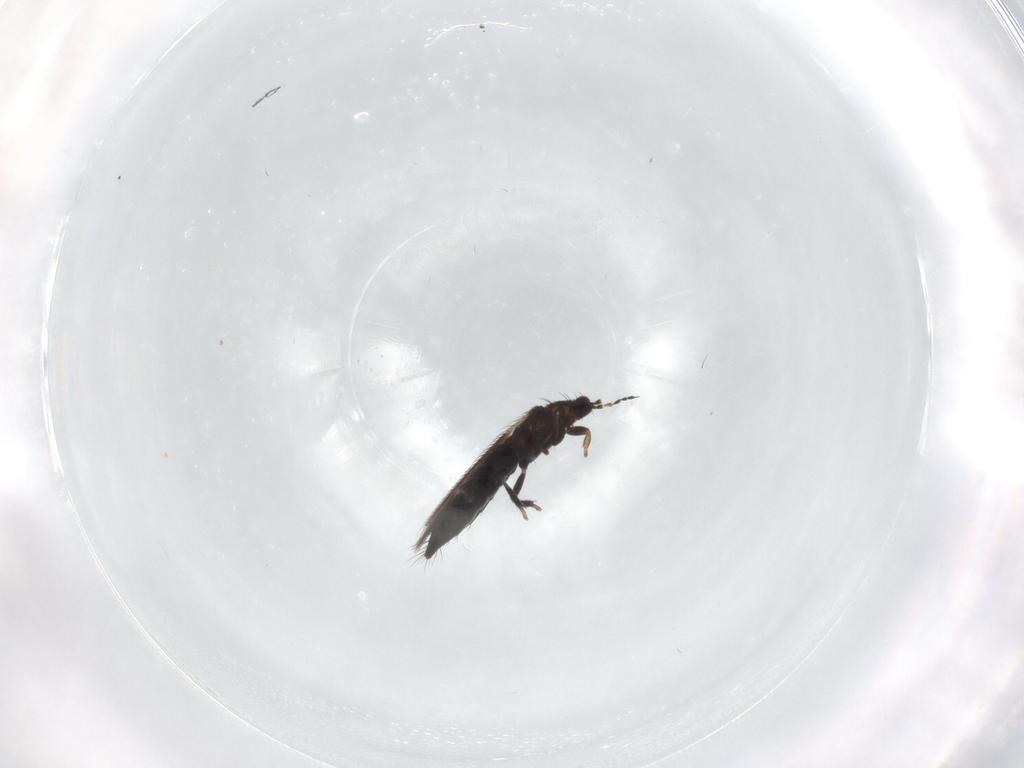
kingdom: Animalia
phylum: Arthropoda
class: Insecta
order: Thysanoptera
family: Thripidae
